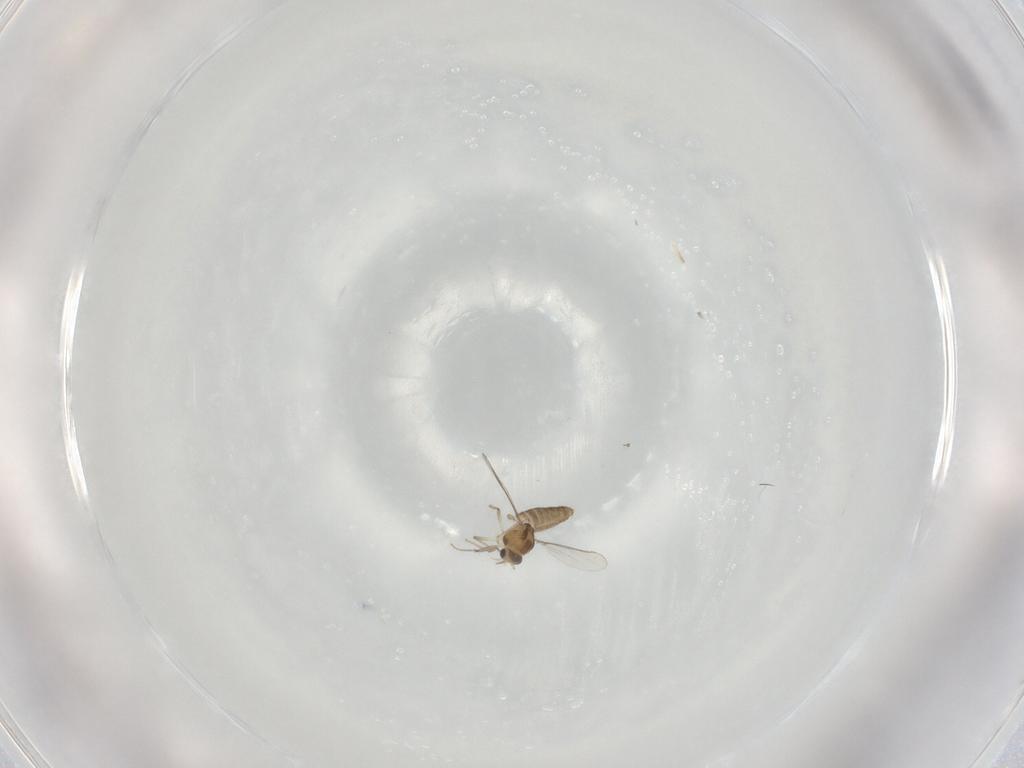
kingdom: Animalia
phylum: Arthropoda
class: Insecta
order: Diptera
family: Chironomidae
